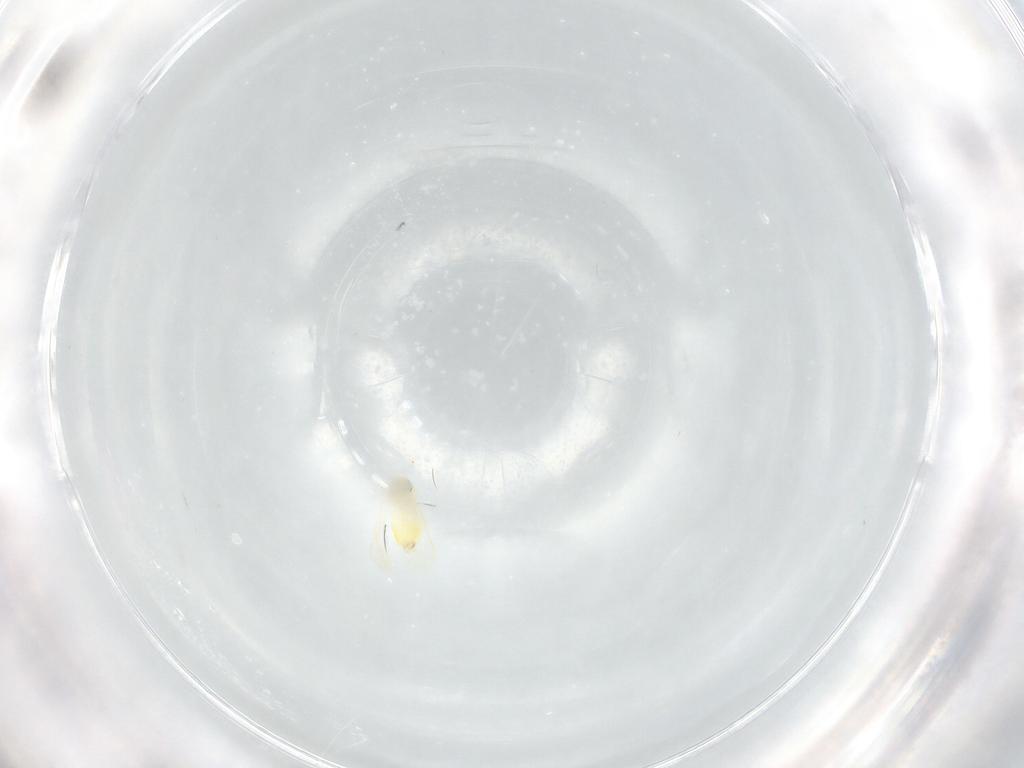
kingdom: Animalia
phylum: Arthropoda
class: Insecta
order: Hemiptera
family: Aleyrodidae
